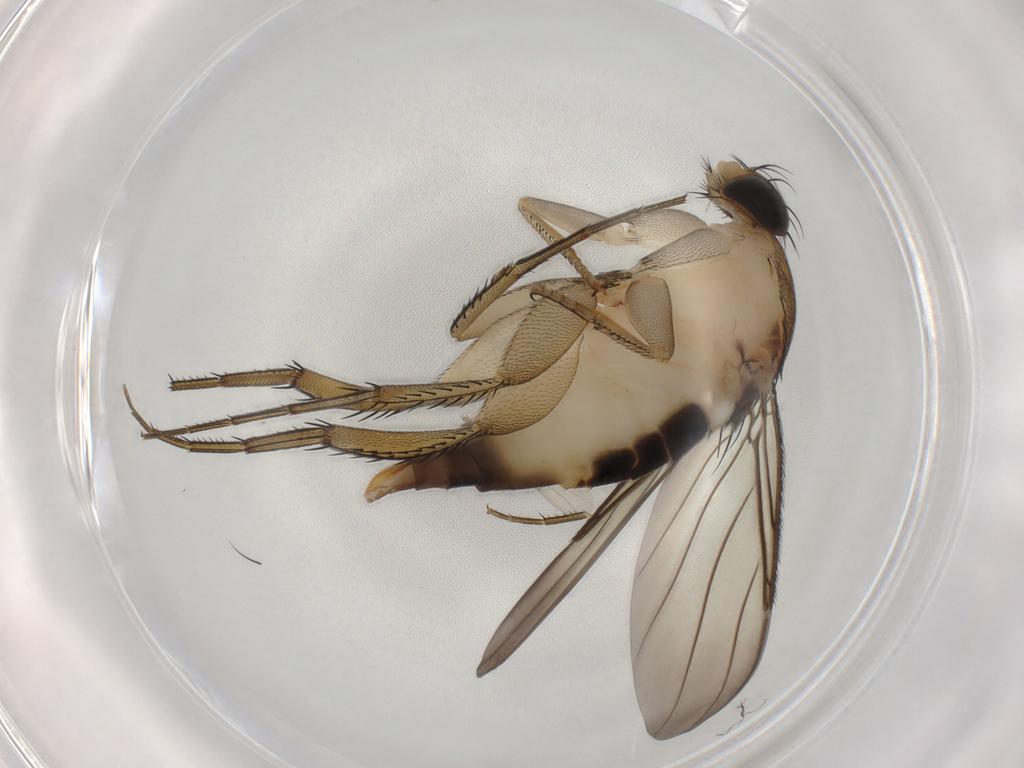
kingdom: Animalia
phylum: Arthropoda
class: Insecta
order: Diptera
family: Phoridae
